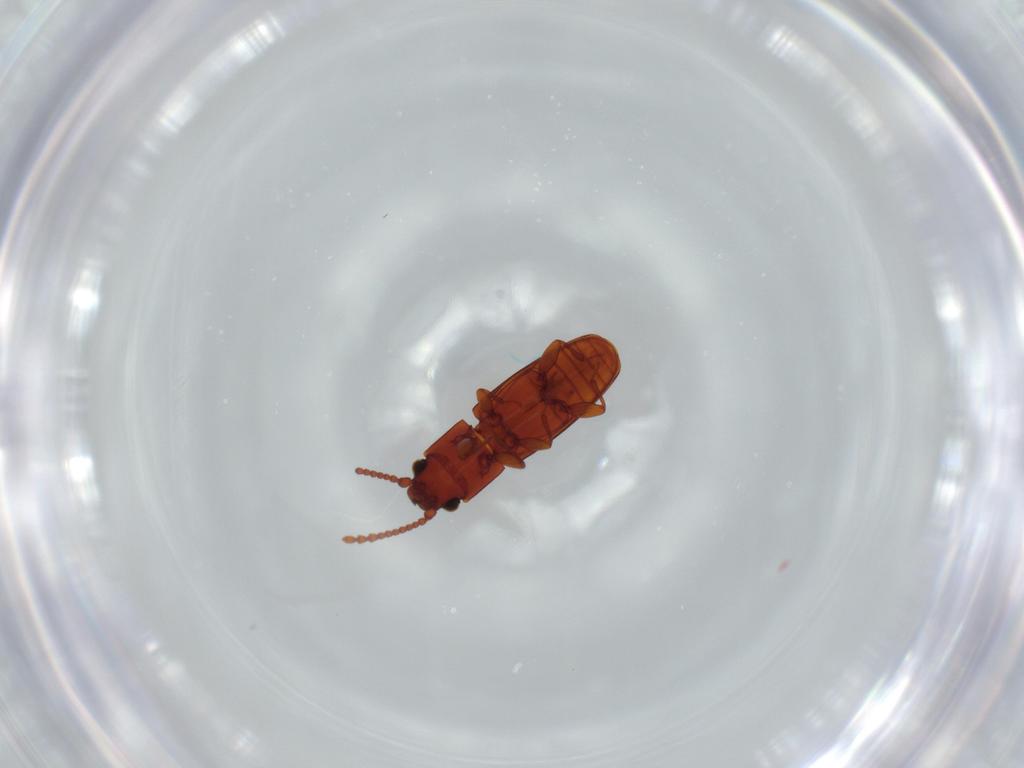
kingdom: Animalia
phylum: Arthropoda
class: Insecta
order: Coleoptera
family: Laemophloeidae
